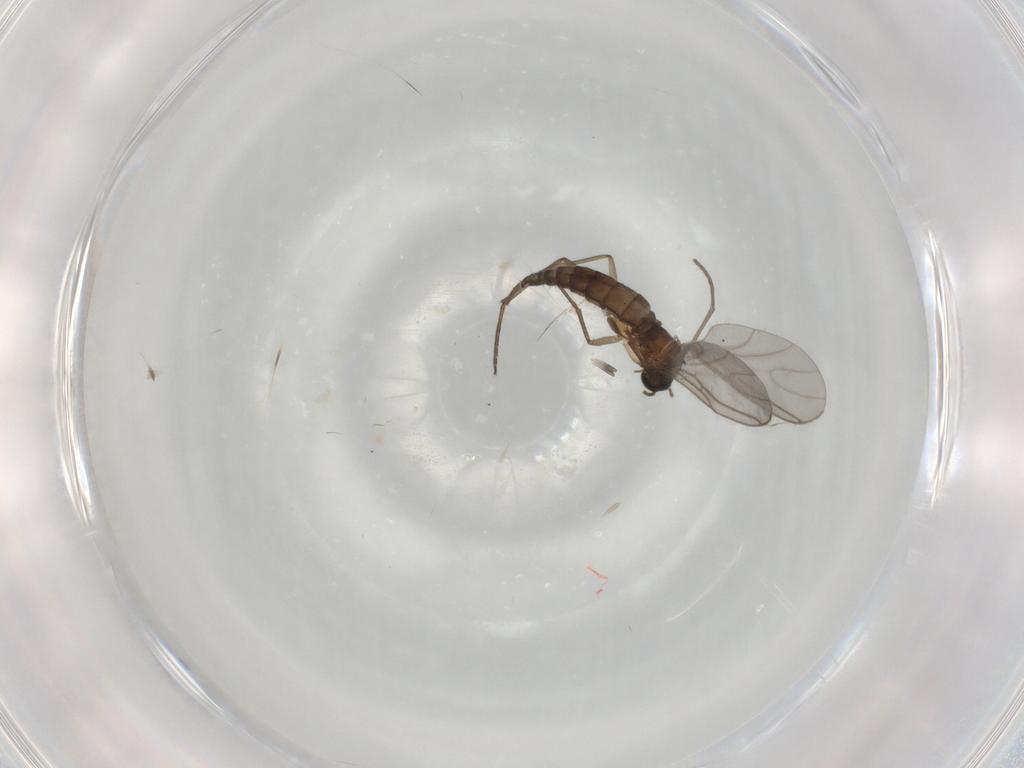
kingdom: Animalia
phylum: Arthropoda
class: Insecta
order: Diptera
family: Sciaridae
